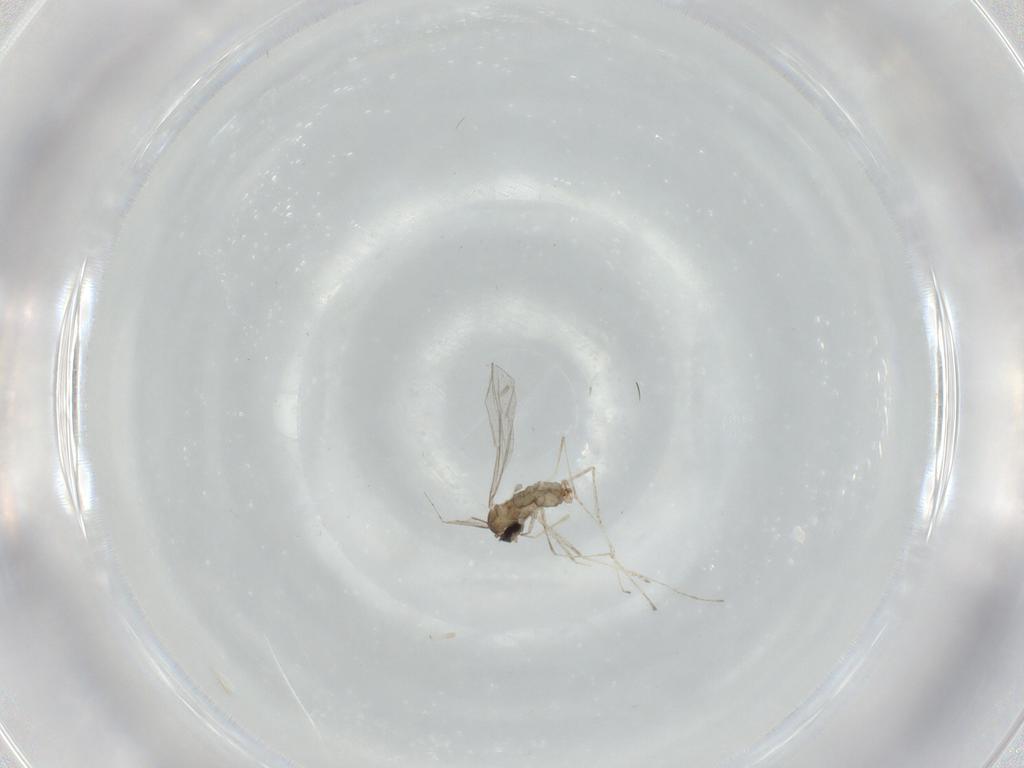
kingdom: Animalia
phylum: Arthropoda
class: Insecta
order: Diptera
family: Cecidomyiidae
